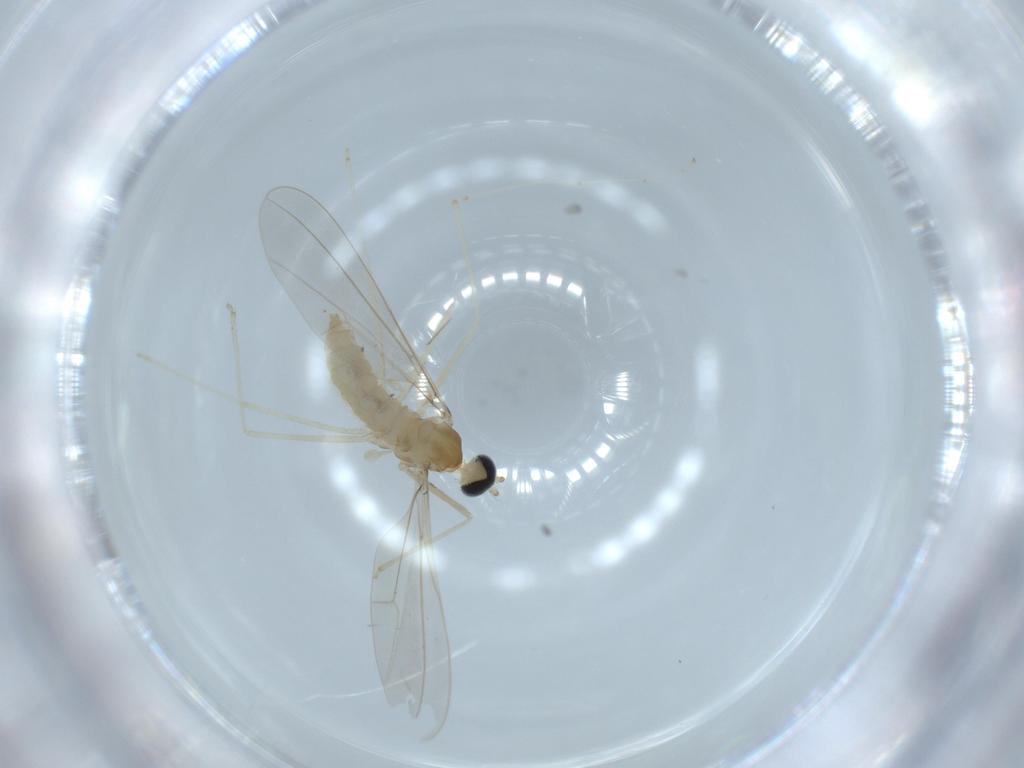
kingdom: Animalia
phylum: Arthropoda
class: Insecta
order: Diptera
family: Cecidomyiidae
